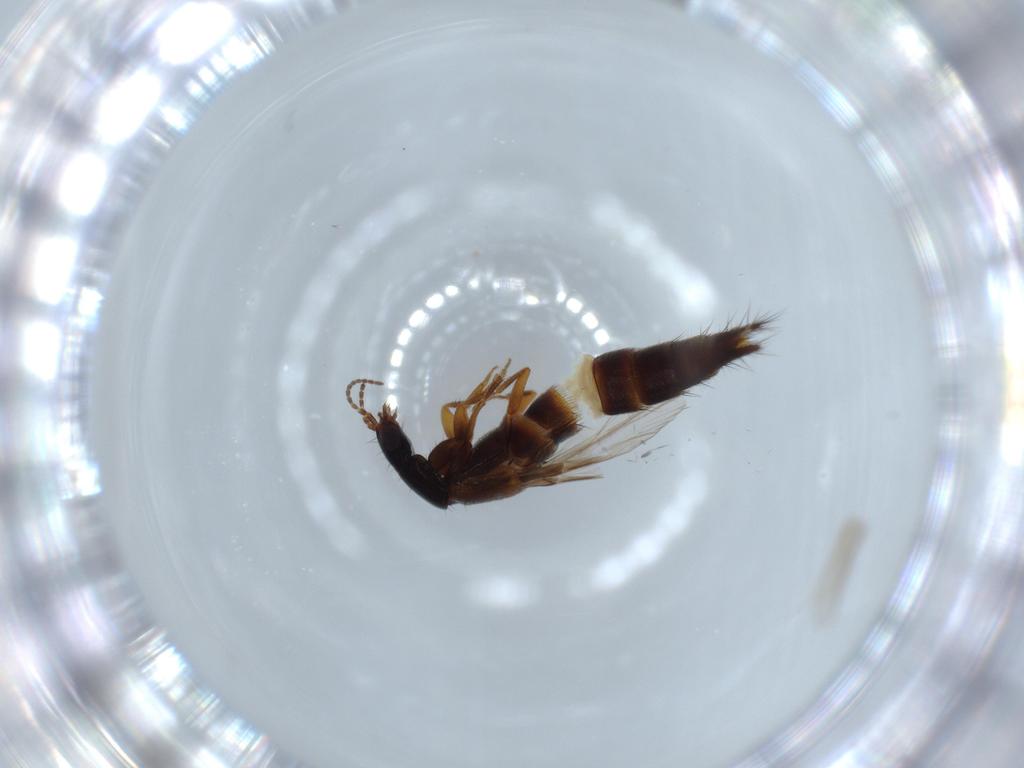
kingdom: Animalia
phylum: Arthropoda
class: Insecta
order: Coleoptera
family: Staphylinidae
